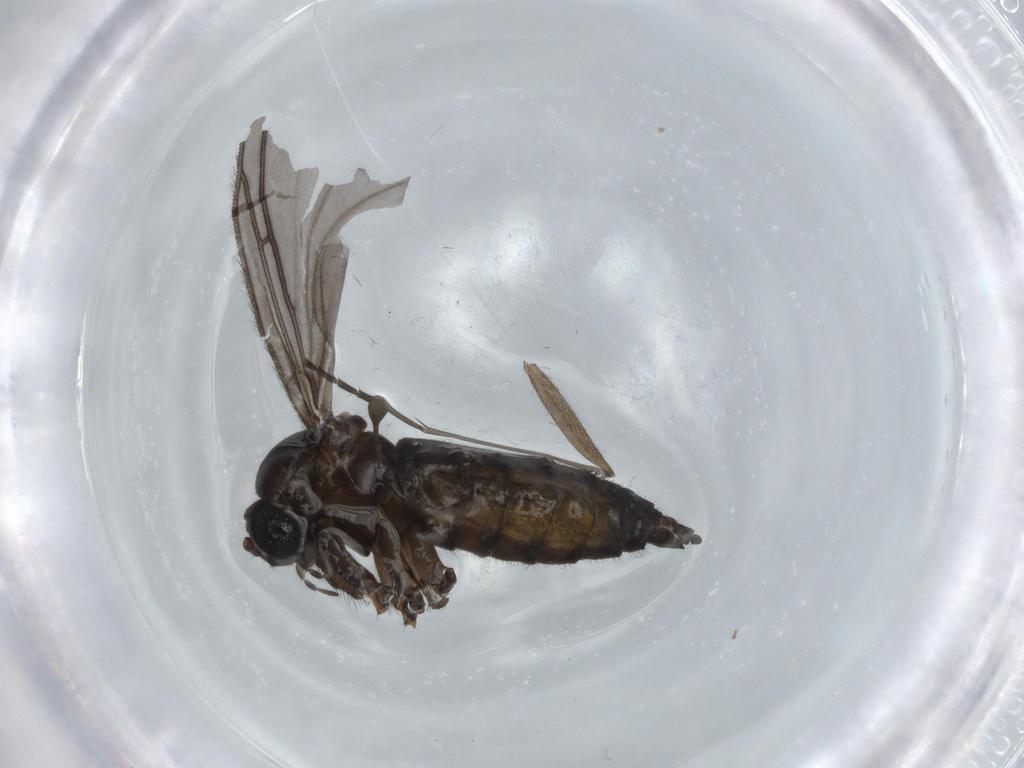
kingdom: Animalia
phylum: Arthropoda
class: Insecta
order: Diptera
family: Sciaridae
